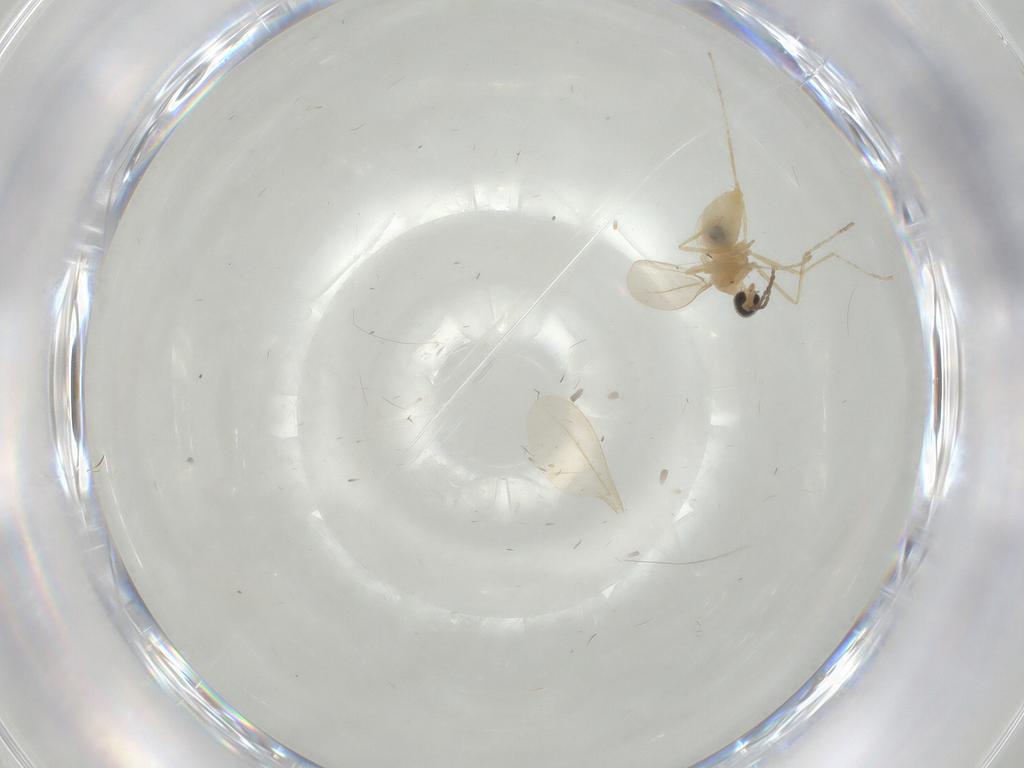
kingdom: Animalia
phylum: Arthropoda
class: Insecta
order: Diptera
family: Cecidomyiidae
